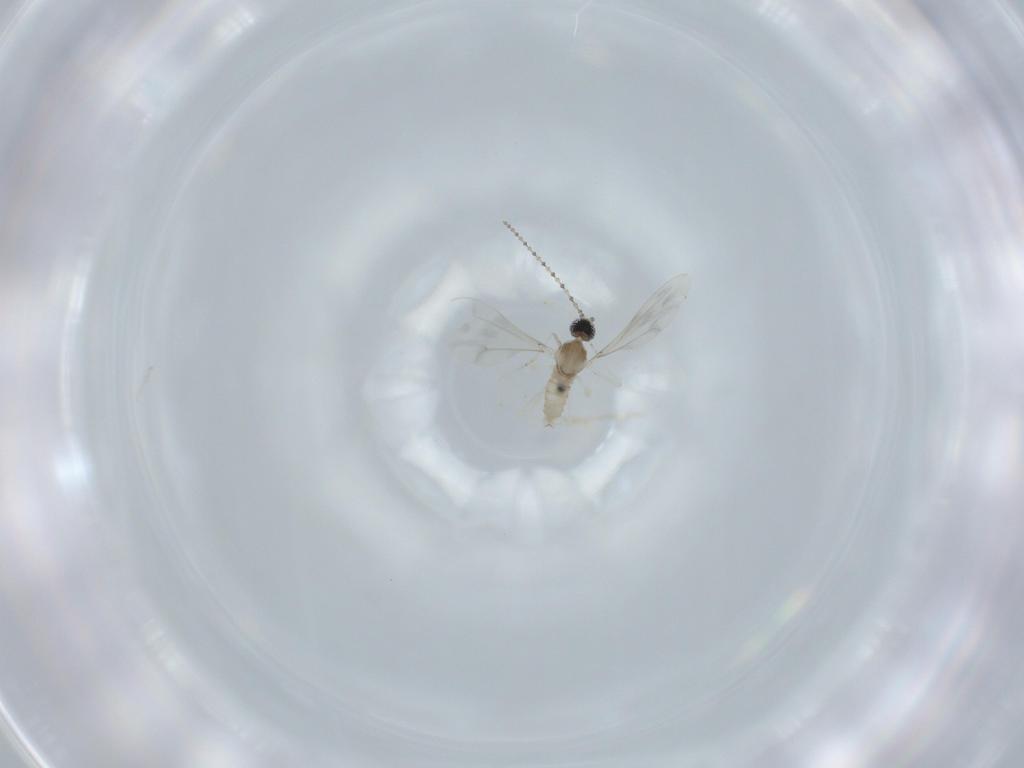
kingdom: Animalia
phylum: Arthropoda
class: Insecta
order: Diptera
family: Cecidomyiidae
